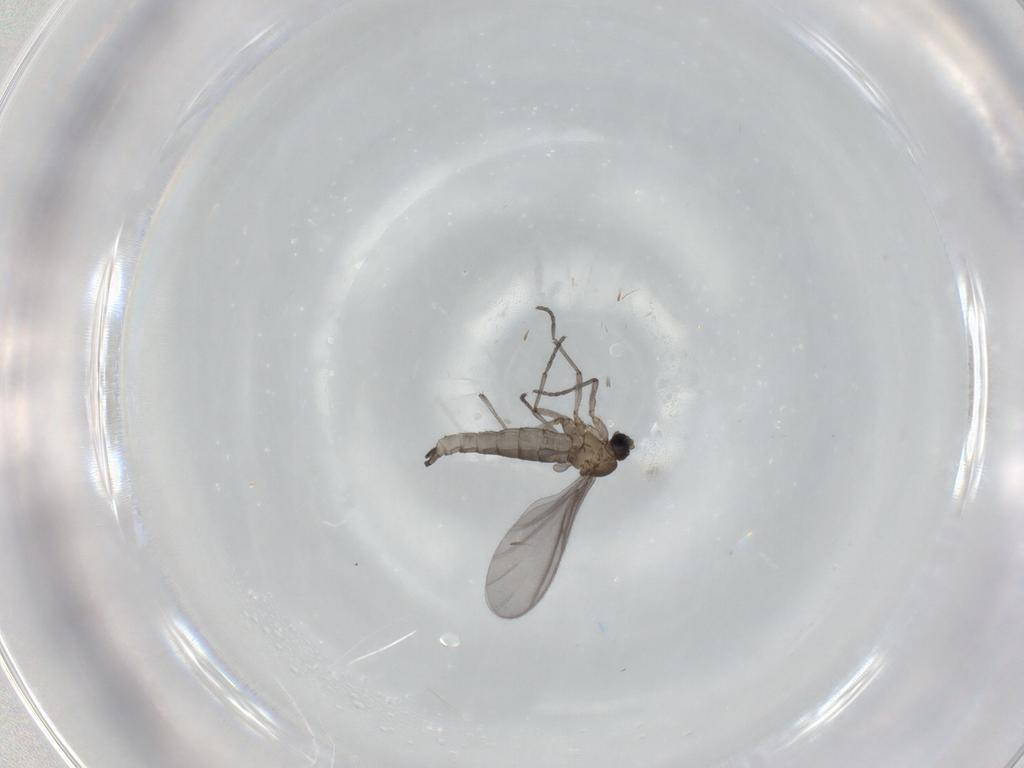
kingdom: Animalia
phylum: Arthropoda
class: Insecta
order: Diptera
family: Sciaridae
